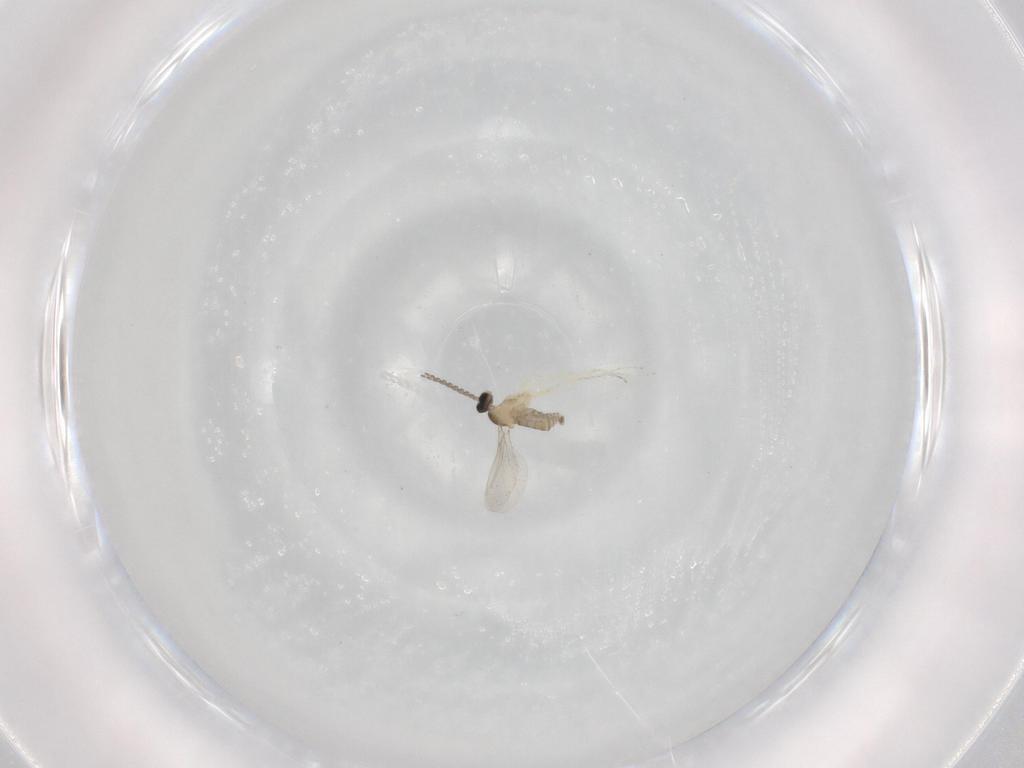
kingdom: Animalia
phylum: Arthropoda
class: Insecta
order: Diptera
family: Cecidomyiidae
